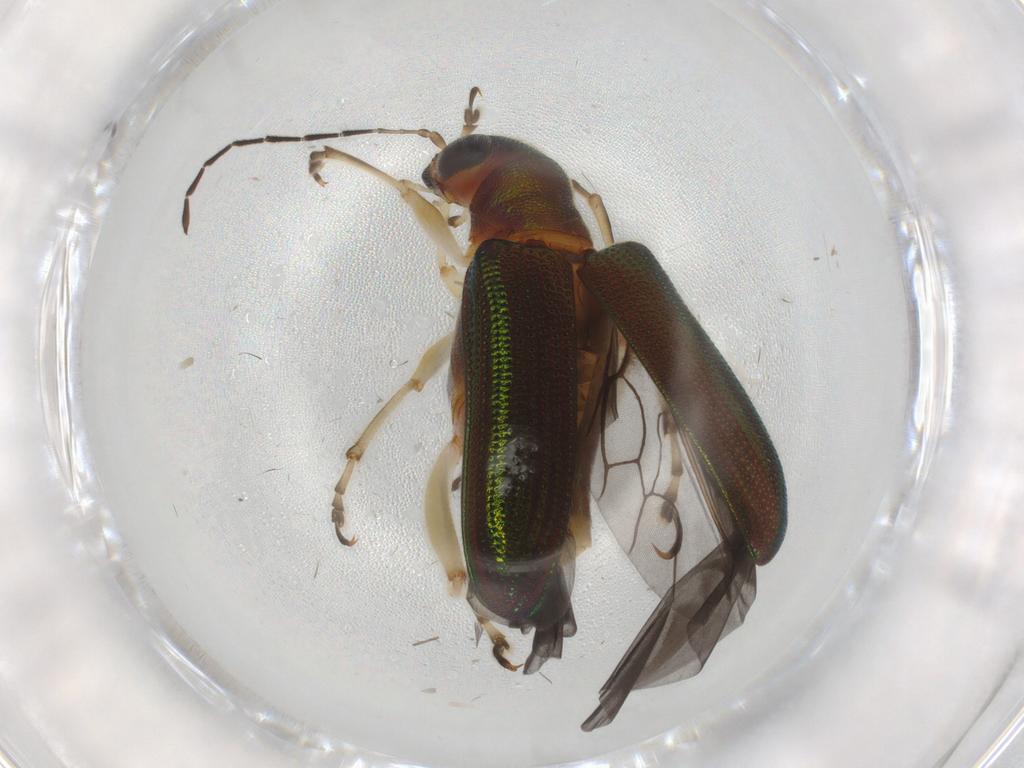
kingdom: Animalia
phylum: Arthropoda
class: Insecta
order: Coleoptera
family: Chrysomelidae
